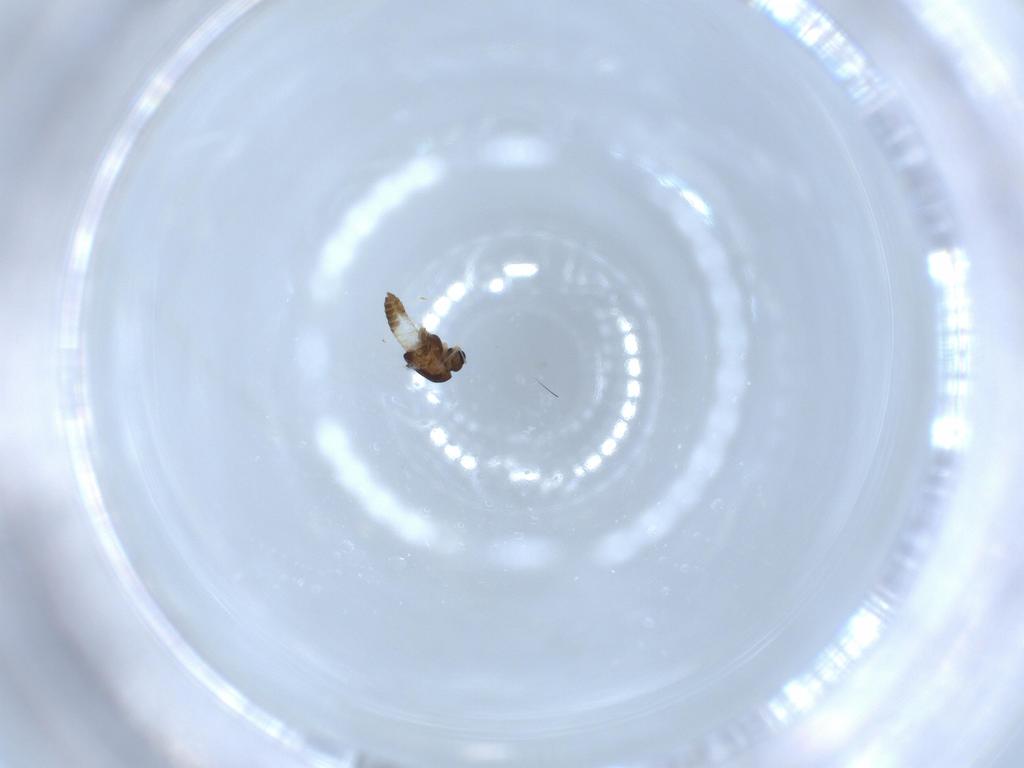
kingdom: Animalia
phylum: Arthropoda
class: Insecta
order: Diptera
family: Chironomidae
